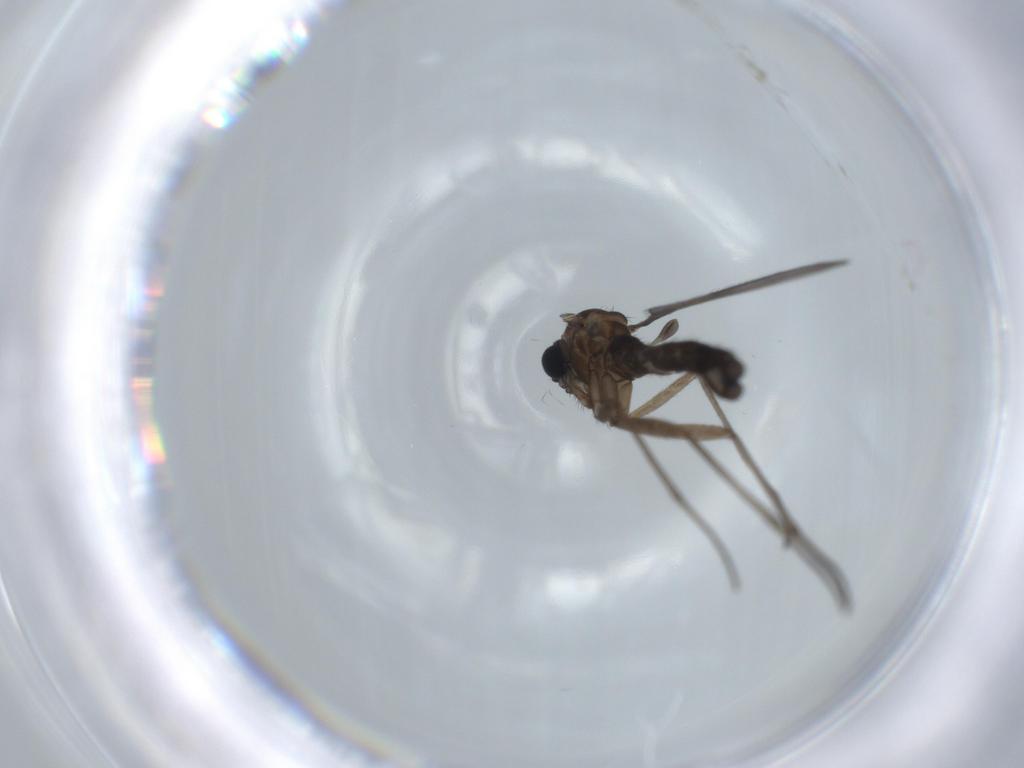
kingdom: Animalia
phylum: Arthropoda
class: Insecta
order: Diptera
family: Sciaridae
